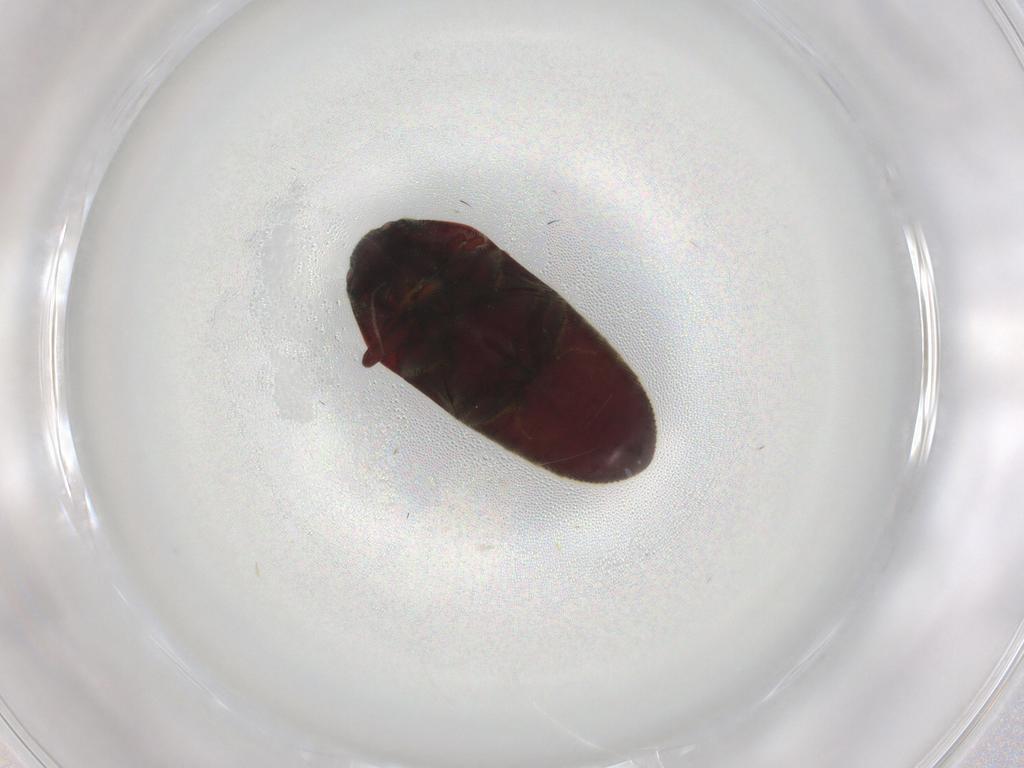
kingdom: Animalia
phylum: Arthropoda
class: Insecta
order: Coleoptera
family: Throscidae
